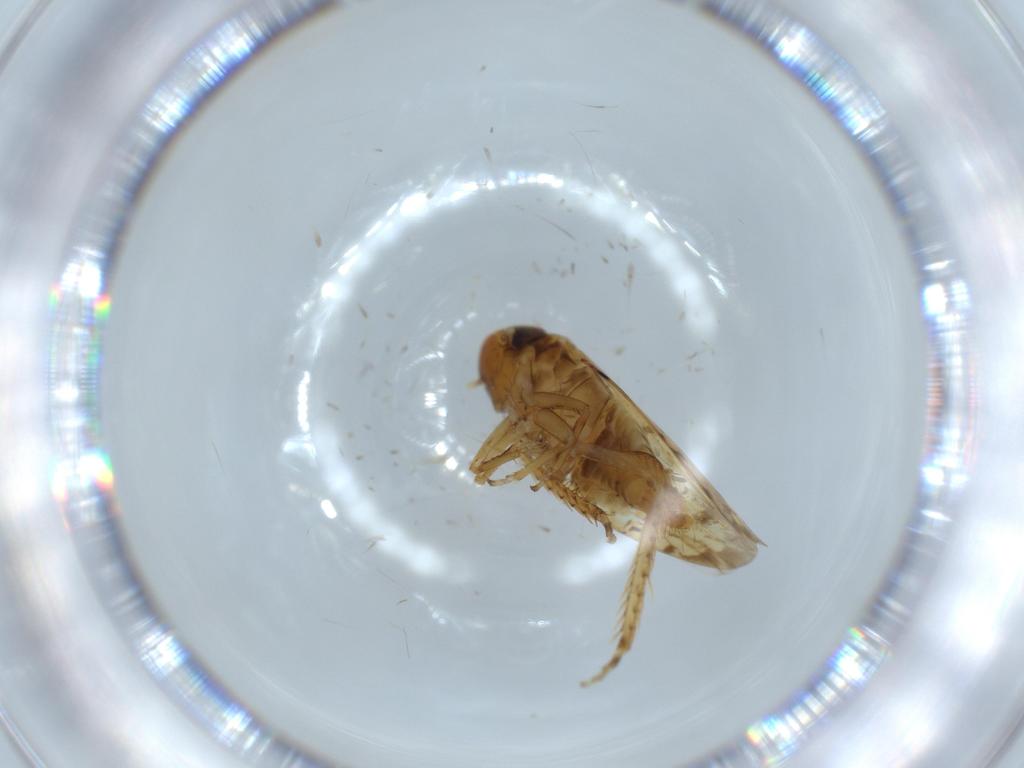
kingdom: Animalia
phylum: Arthropoda
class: Insecta
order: Hemiptera
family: Cicadellidae
